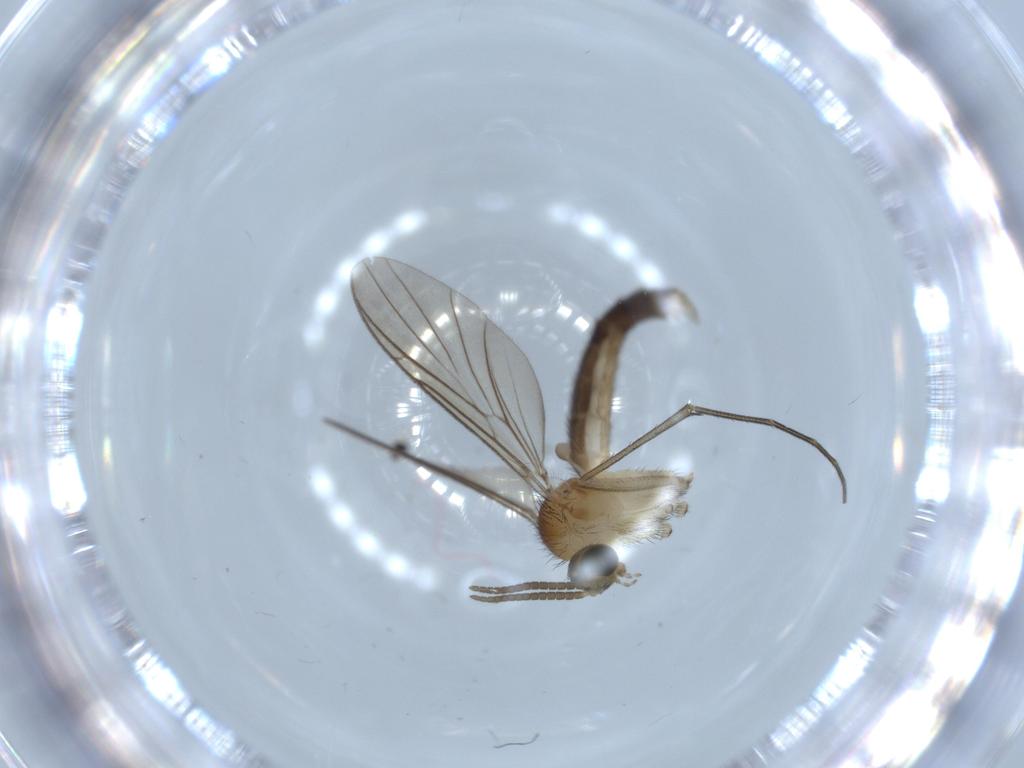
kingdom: Animalia
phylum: Arthropoda
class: Insecta
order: Diptera
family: Keroplatidae
